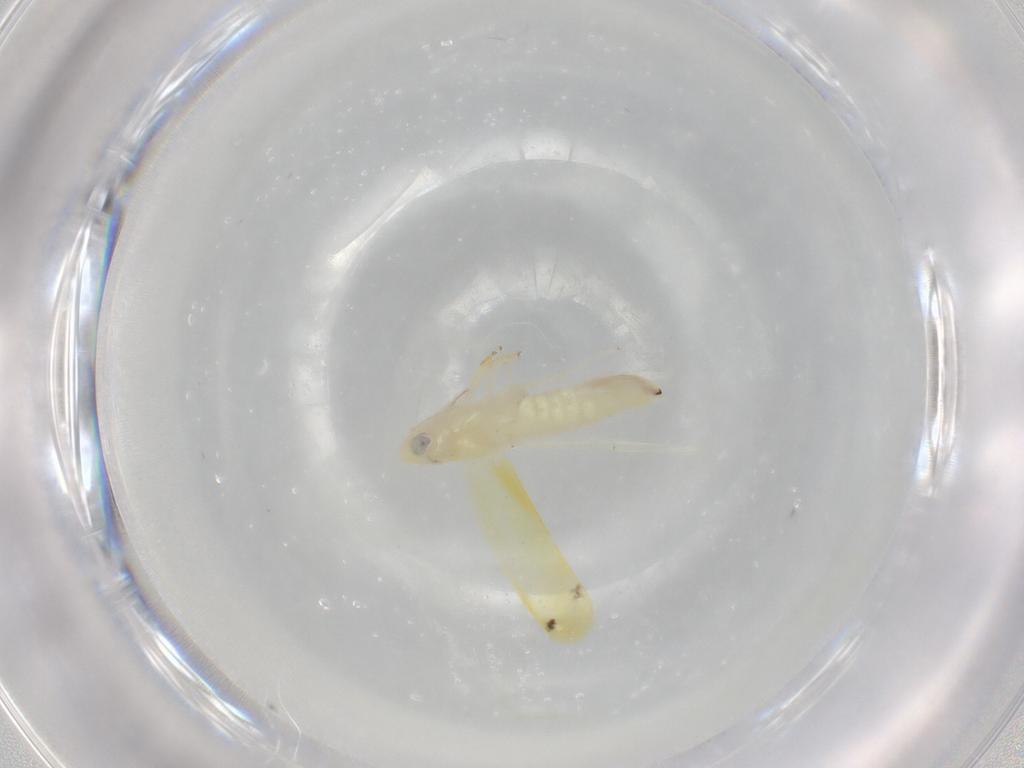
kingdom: Animalia
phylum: Arthropoda
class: Insecta
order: Hemiptera
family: Cicadellidae
